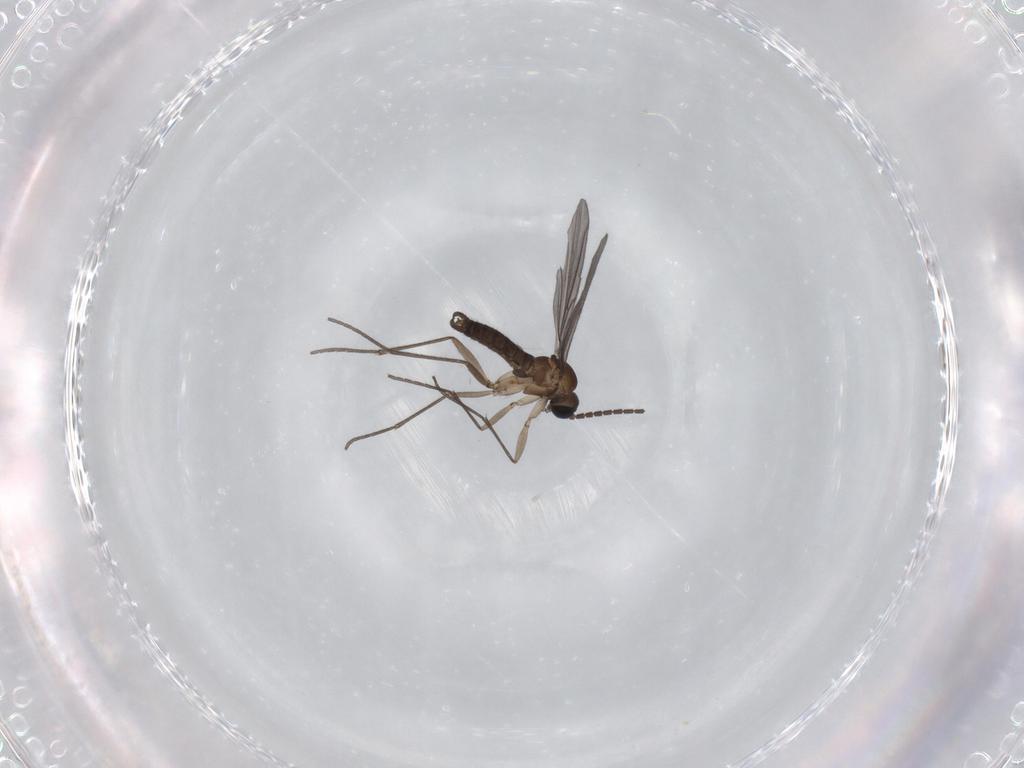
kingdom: Animalia
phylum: Arthropoda
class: Insecta
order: Diptera
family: Sciaridae
